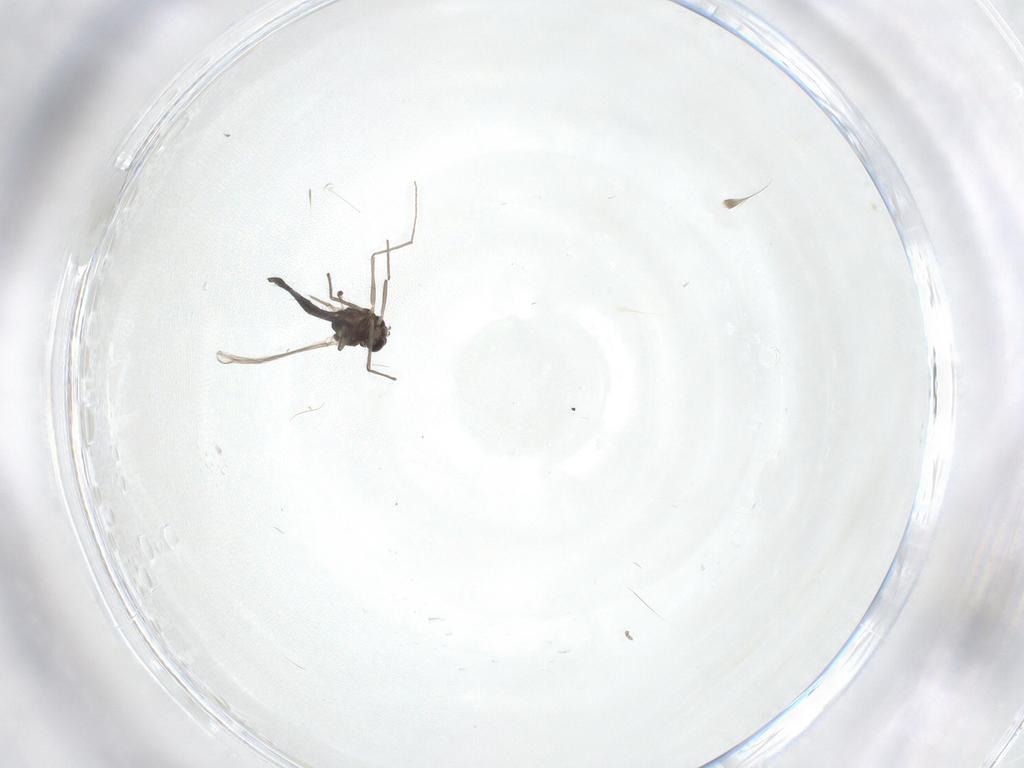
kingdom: Animalia
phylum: Arthropoda
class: Insecta
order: Diptera
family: Chironomidae
